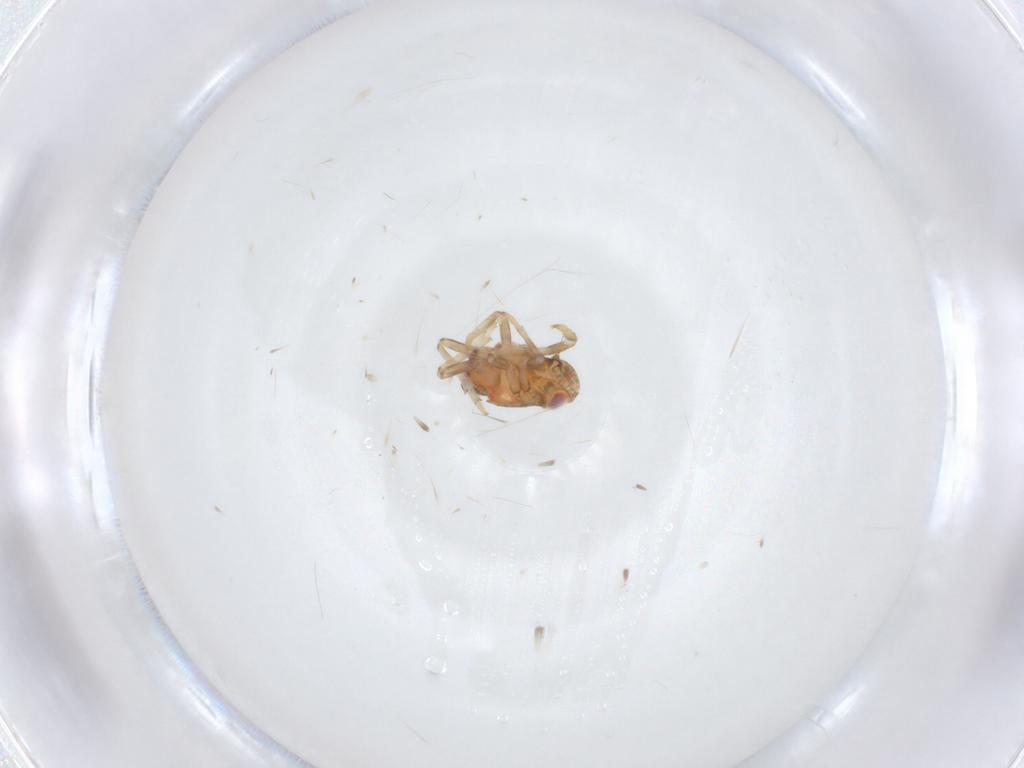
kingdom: Animalia
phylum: Arthropoda
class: Insecta
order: Hemiptera
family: Issidae
